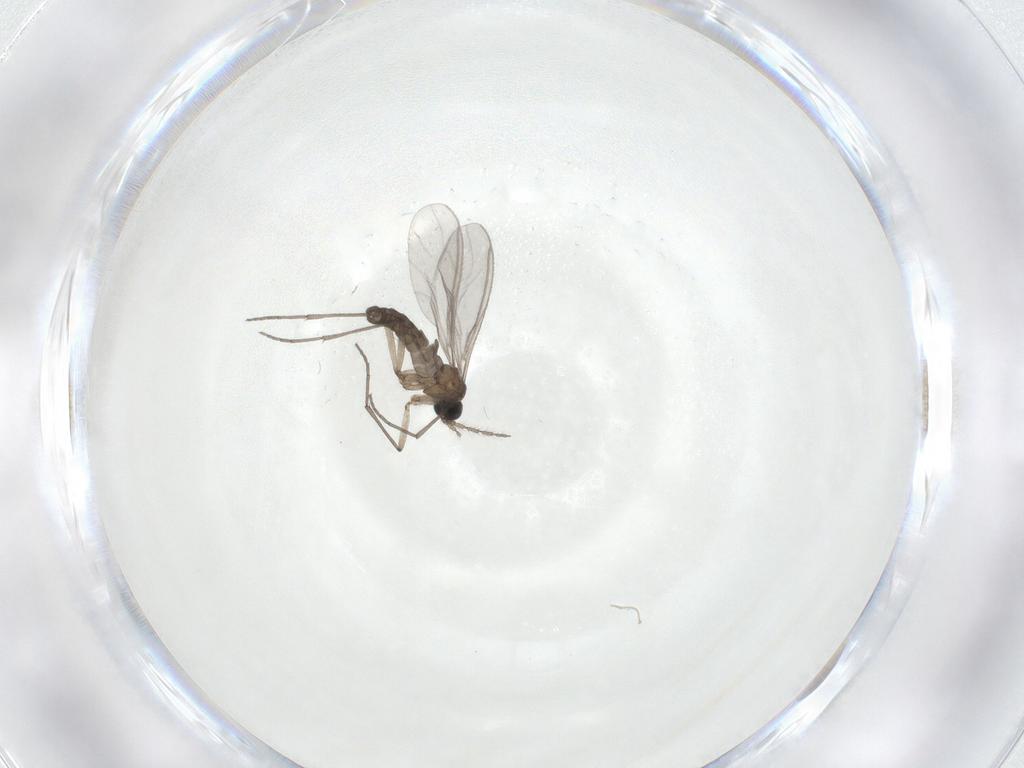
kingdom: Animalia
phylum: Arthropoda
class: Insecta
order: Diptera
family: Sciaridae
